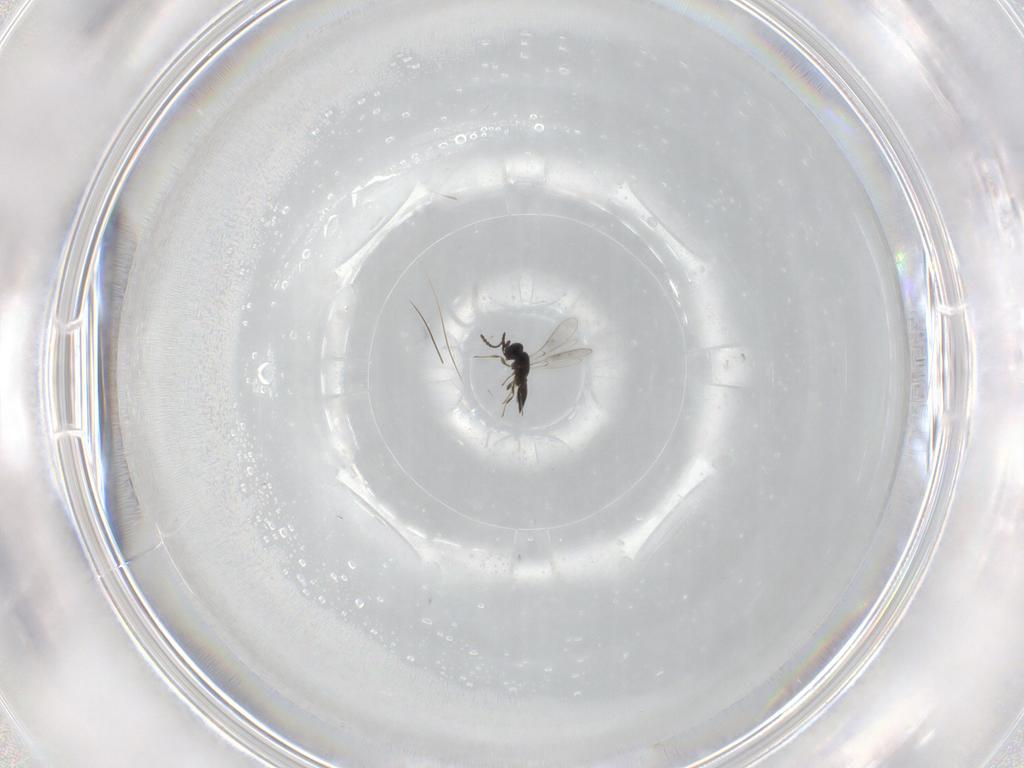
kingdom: Animalia
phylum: Arthropoda
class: Insecta
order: Hymenoptera
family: Scelionidae
